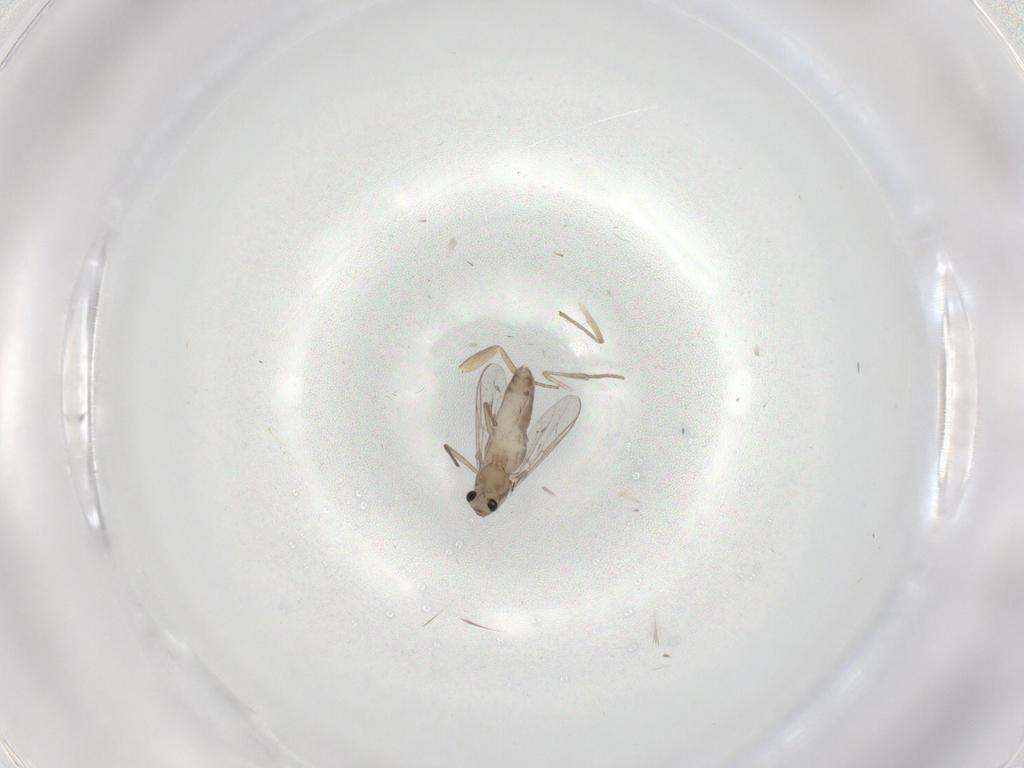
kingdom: Animalia
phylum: Arthropoda
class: Insecta
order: Diptera
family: Chironomidae
